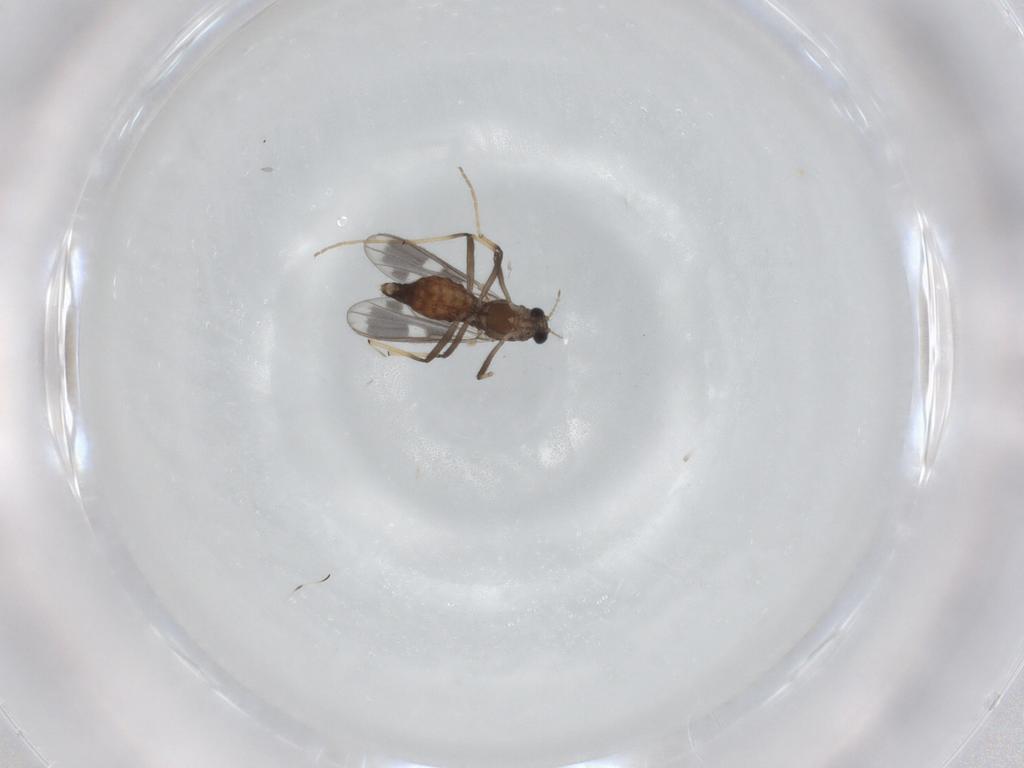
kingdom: Animalia
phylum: Arthropoda
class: Insecta
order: Diptera
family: Chironomidae
